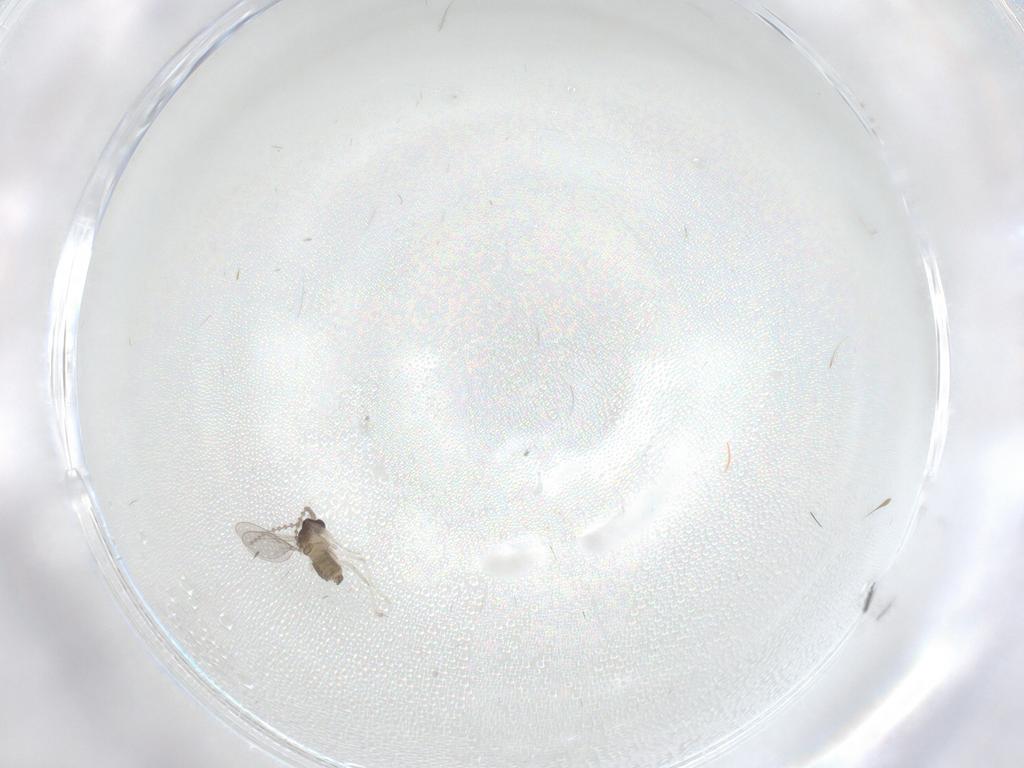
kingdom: Animalia
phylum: Arthropoda
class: Insecta
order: Diptera
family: Cecidomyiidae
